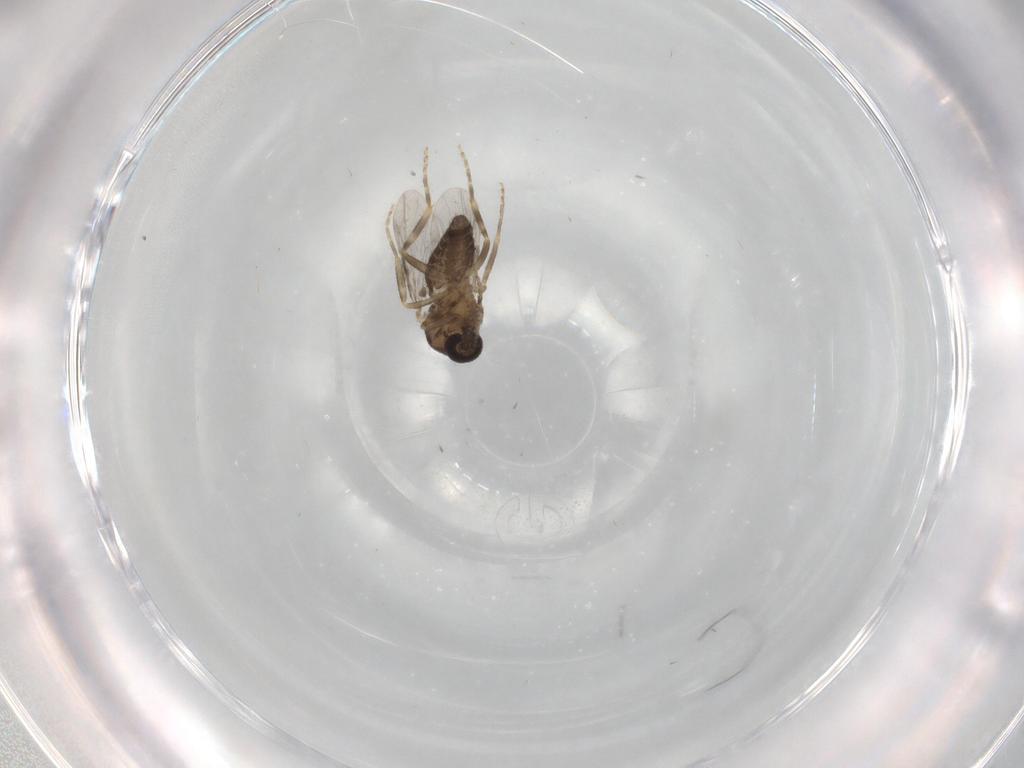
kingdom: Animalia
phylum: Arthropoda
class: Insecta
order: Diptera
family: Ceratopogonidae
